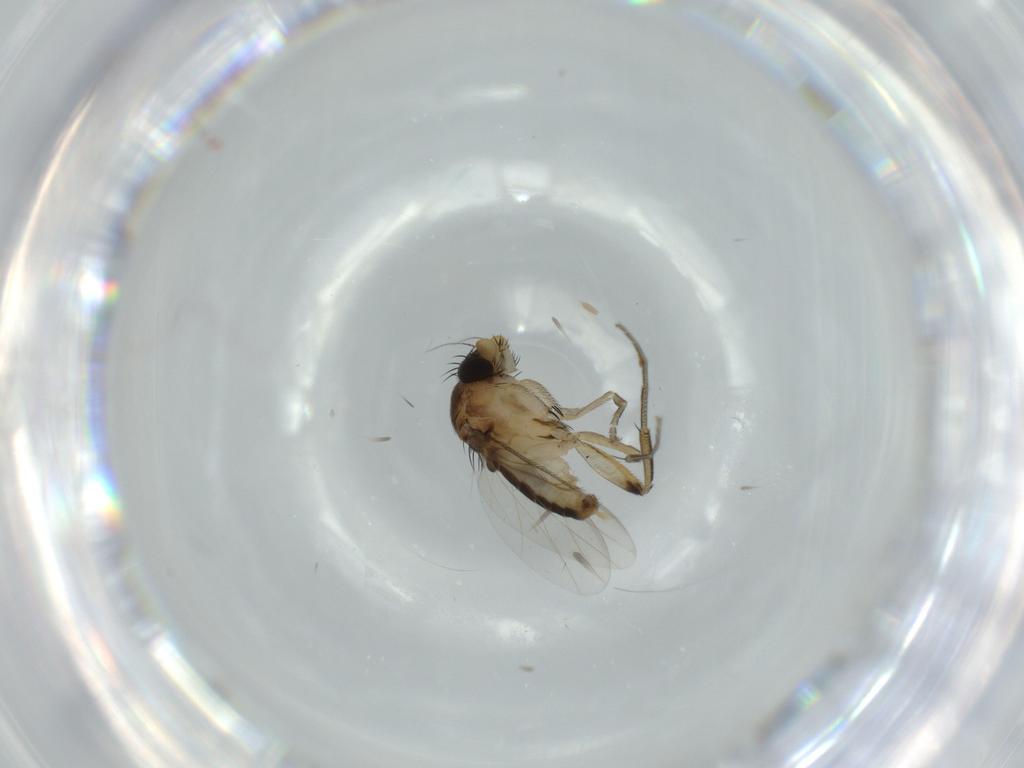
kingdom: Animalia
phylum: Arthropoda
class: Insecta
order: Diptera
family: Phoridae
